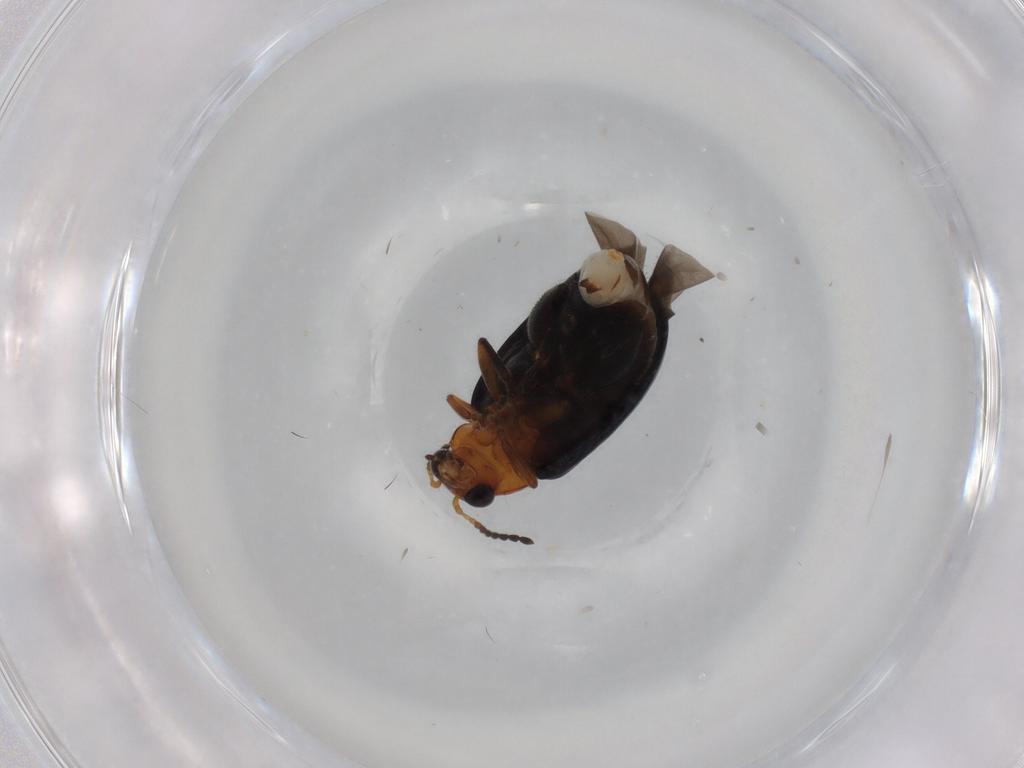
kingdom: Animalia
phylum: Arthropoda
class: Insecta
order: Coleoptera
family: Chrysomelidae
